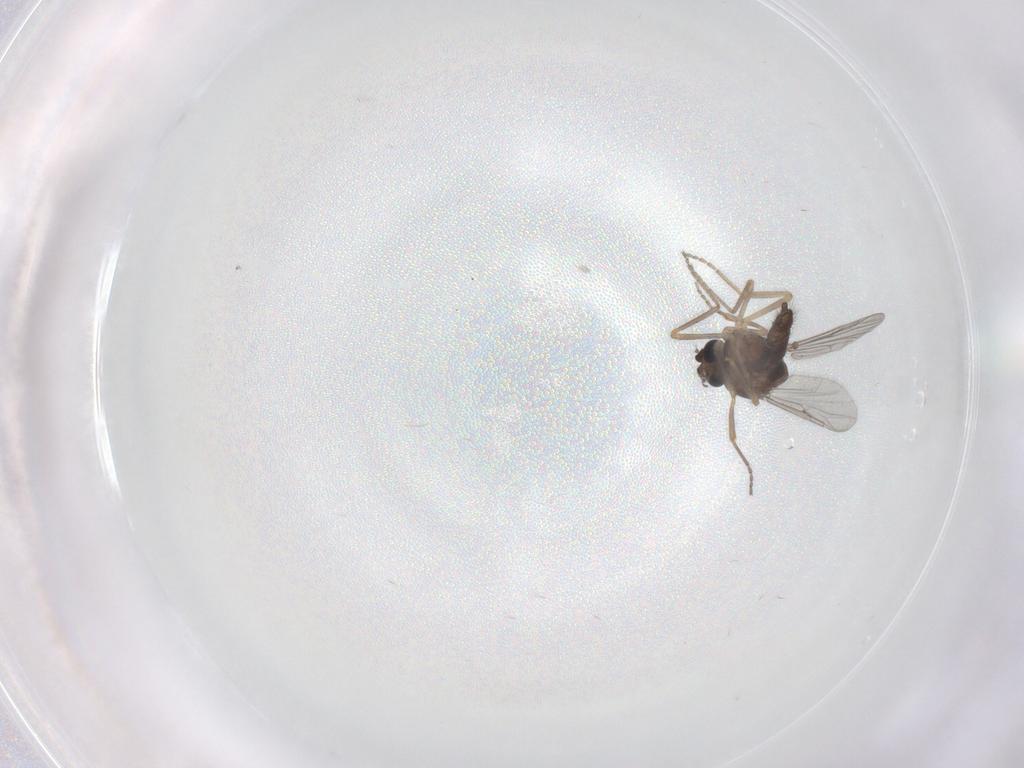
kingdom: Animalia
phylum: Arthropoda
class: Insecta
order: Diptera
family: Ceratopogonidae
